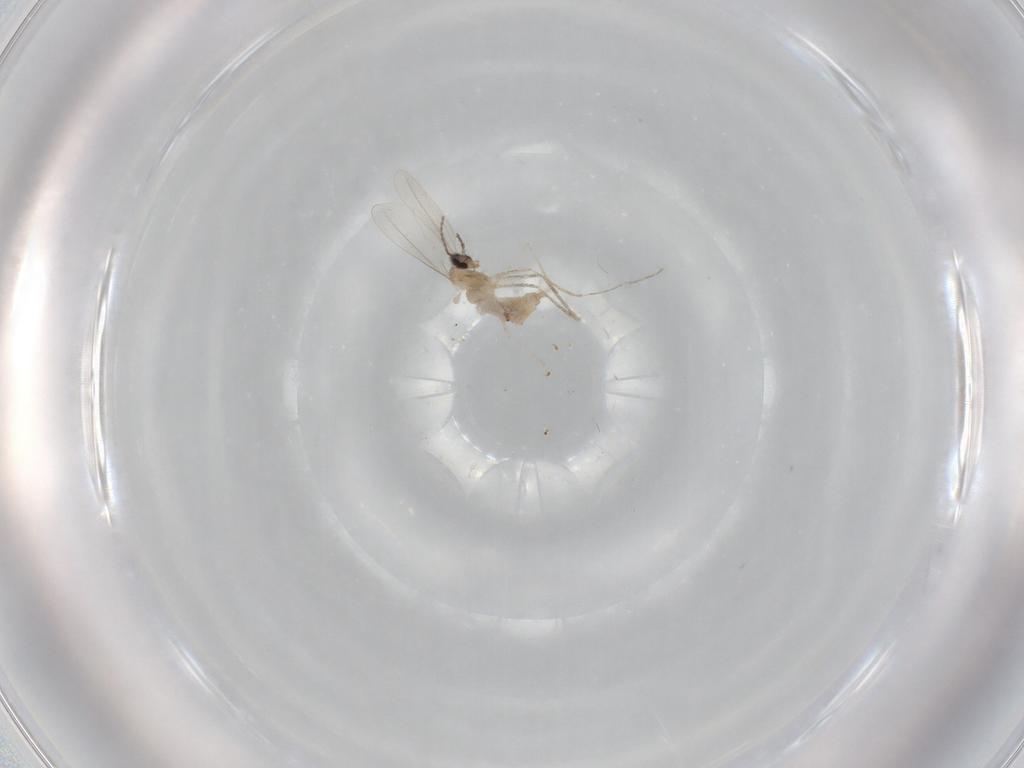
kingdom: Animalia
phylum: Arthropoda
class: Insecta
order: Diptera
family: Sciaridae
